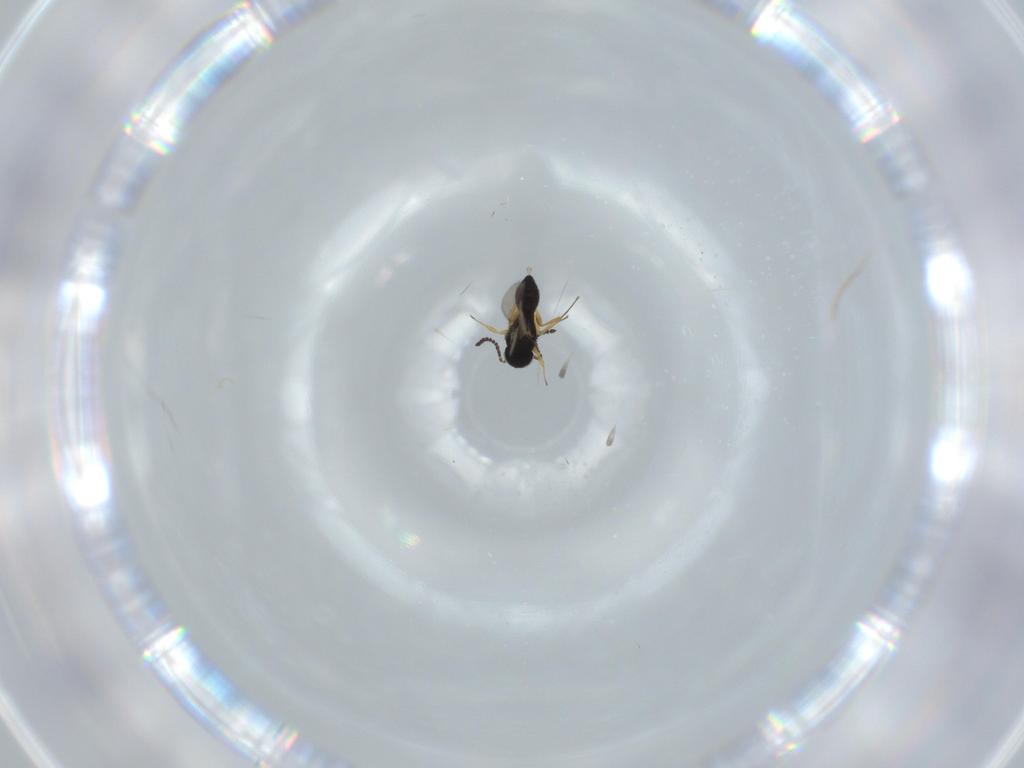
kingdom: Animalia
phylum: Arthropoda
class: Insecta
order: Hymenoptera
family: Scelionidae
